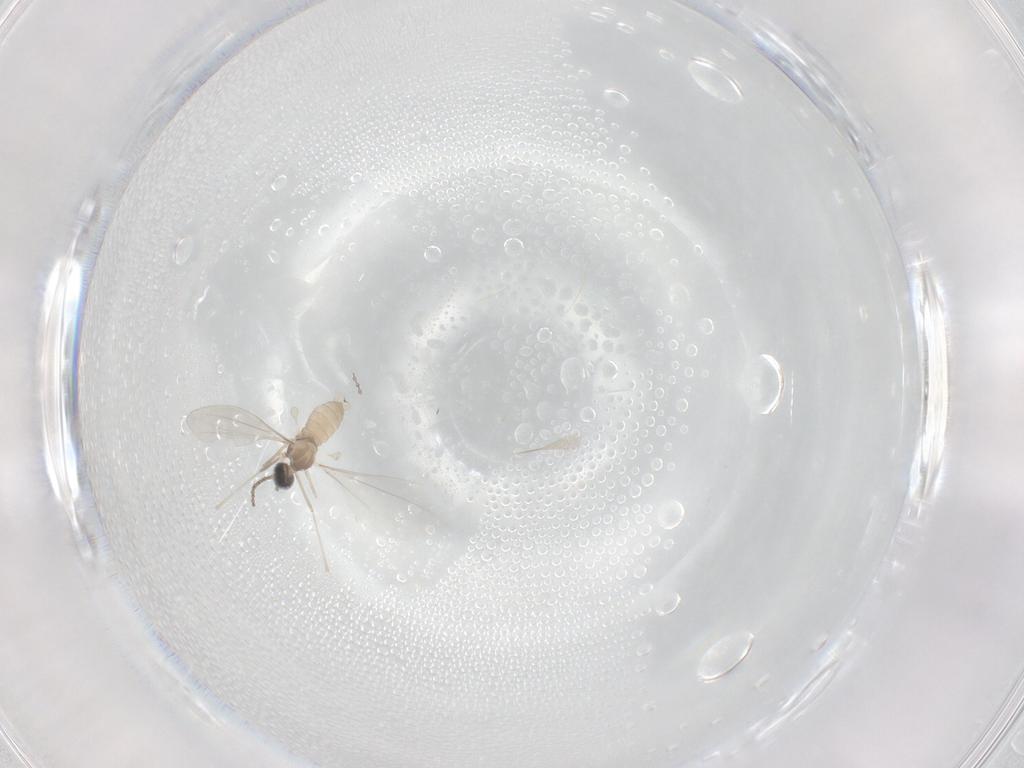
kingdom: Animalia
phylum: Arthropoda
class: Insecta
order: Diptera
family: Cecidomyiidae
